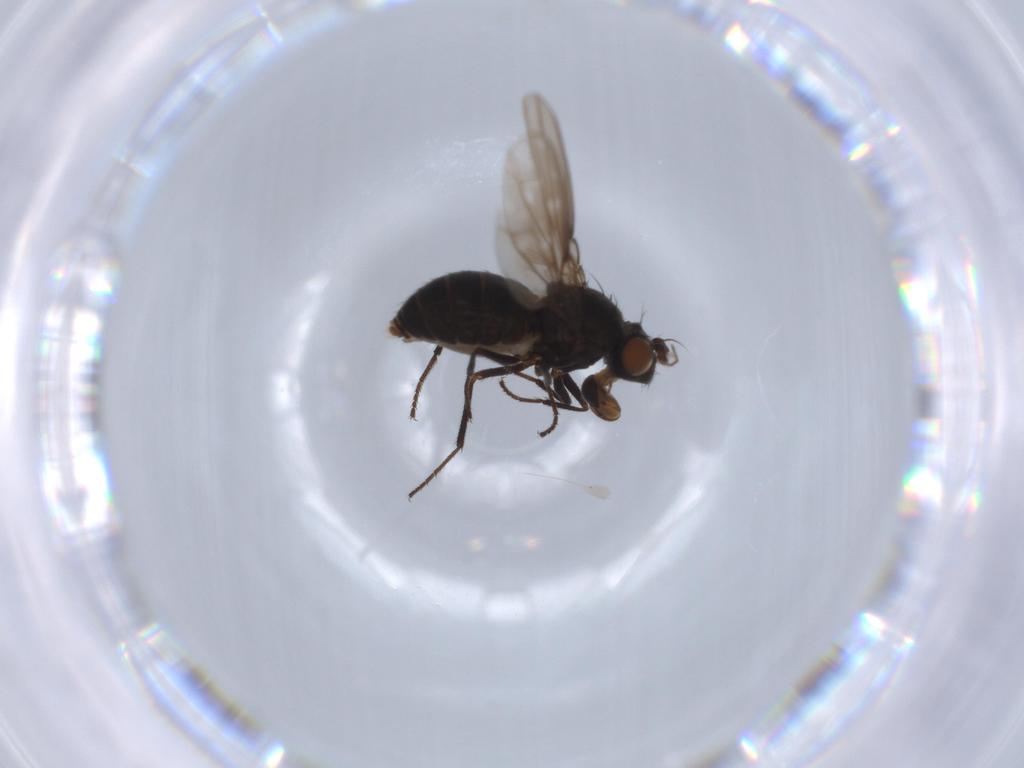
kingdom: Animalia
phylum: Arthropoda
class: Insecta
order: Diptera
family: Ephydridae
